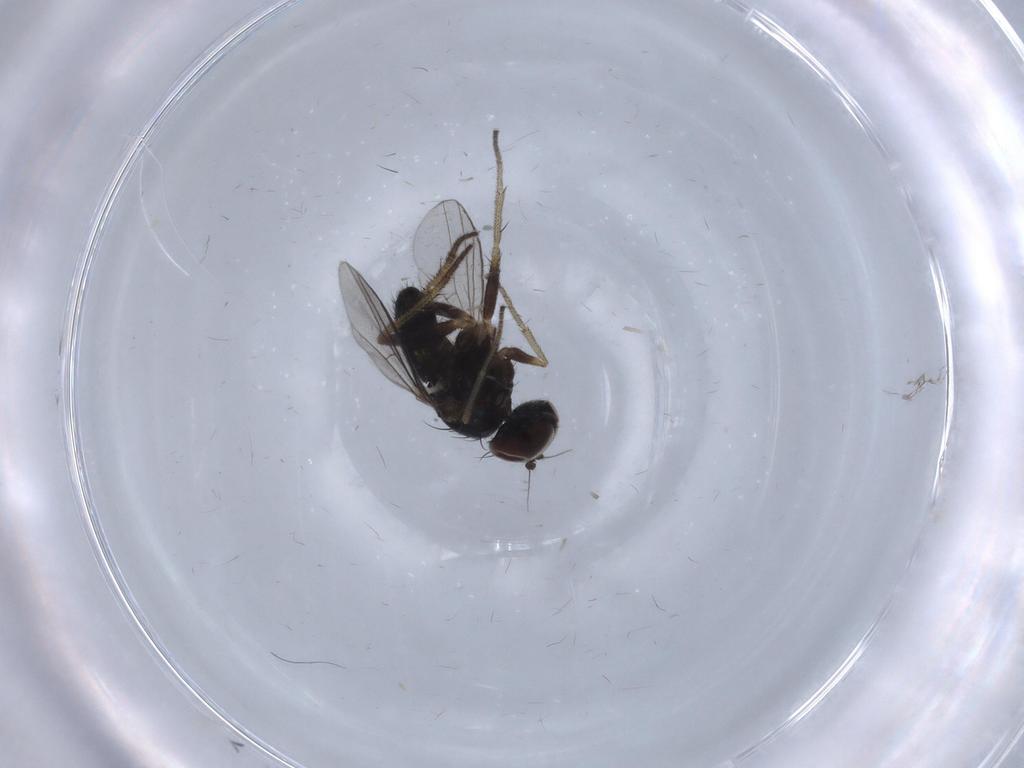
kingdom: Animalia
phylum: Arthropoda
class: Insecta
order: Diptera
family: Dolichopodidae
